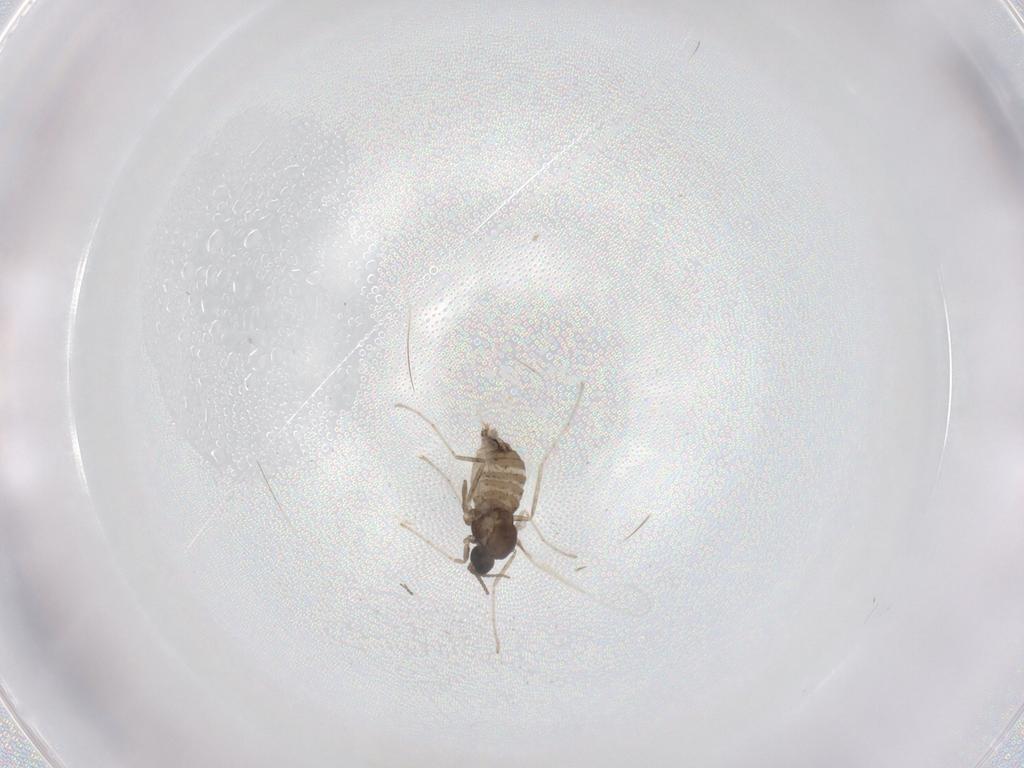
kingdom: Animalia
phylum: Arthropoda
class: Insecta
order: Diptera
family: Cecidomyiidae
